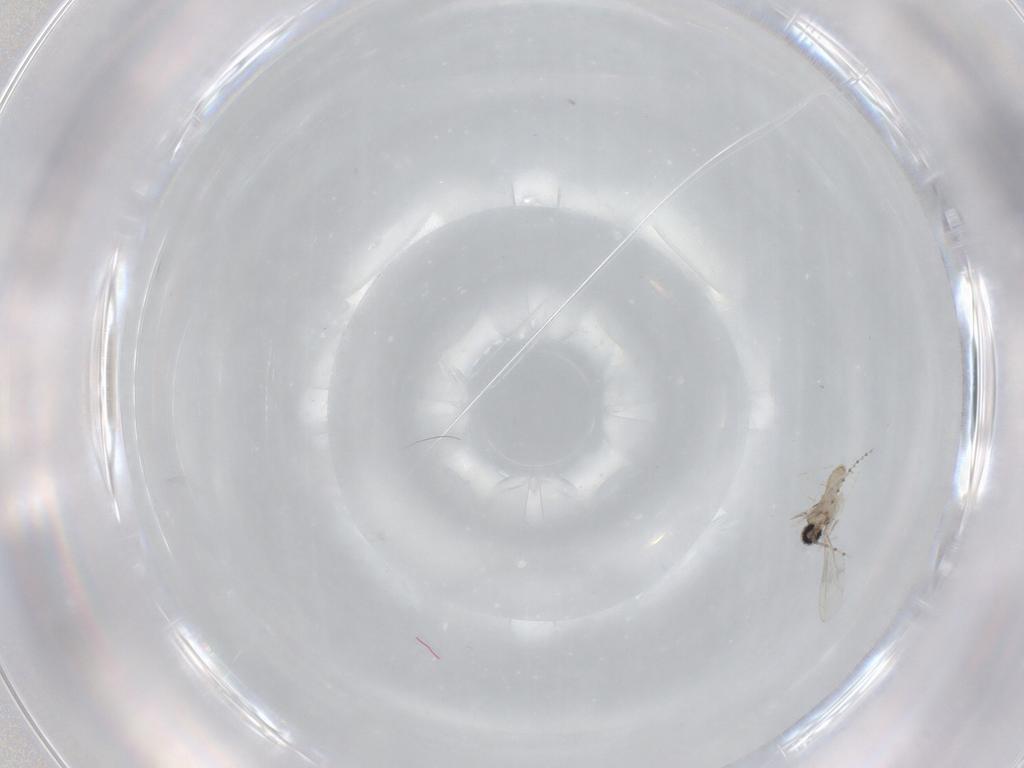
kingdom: Animalia
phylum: Arthropoda
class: Insecta
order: Diptera
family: Cecidomyiidae
